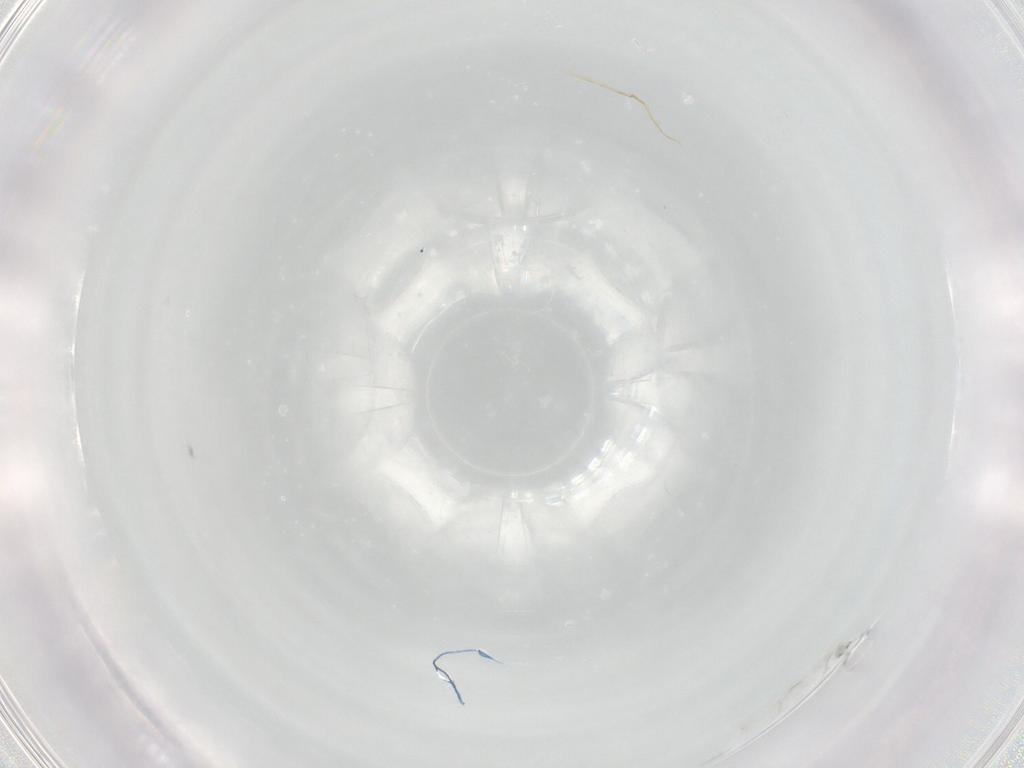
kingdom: Animalia
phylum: Arthropoda
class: Collembola
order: Entomobryomorpha
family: Entomobryidae
